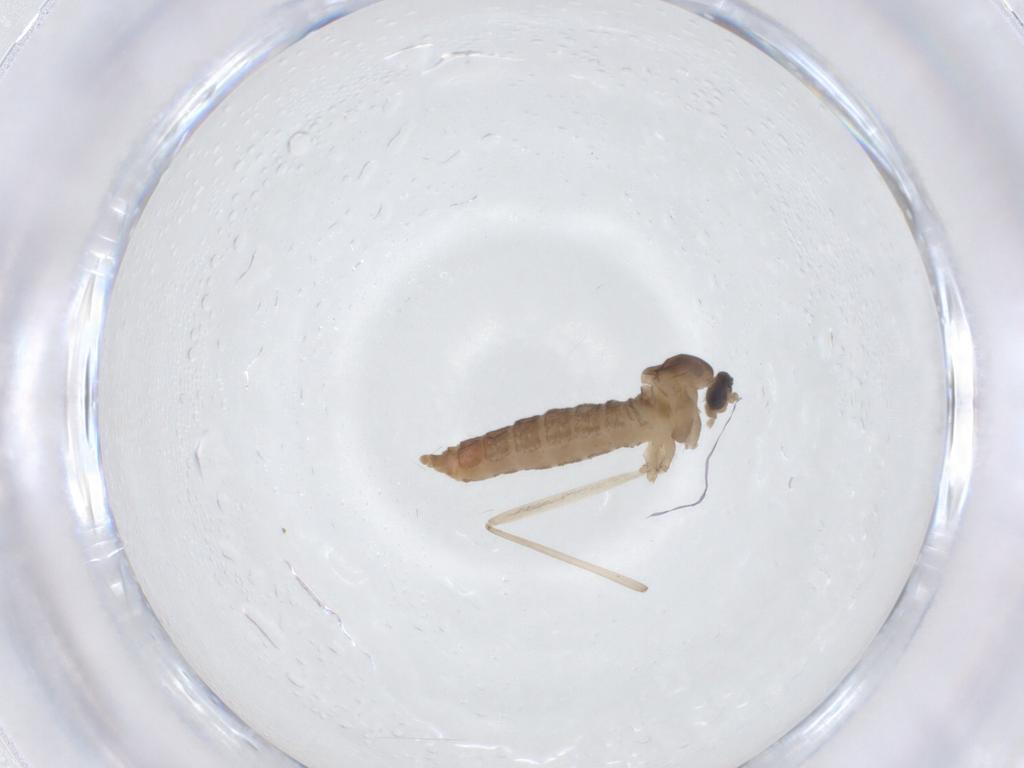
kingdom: Animalia
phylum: Arthropoda
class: Insecta
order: Diptera
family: Cecidomyiidae
